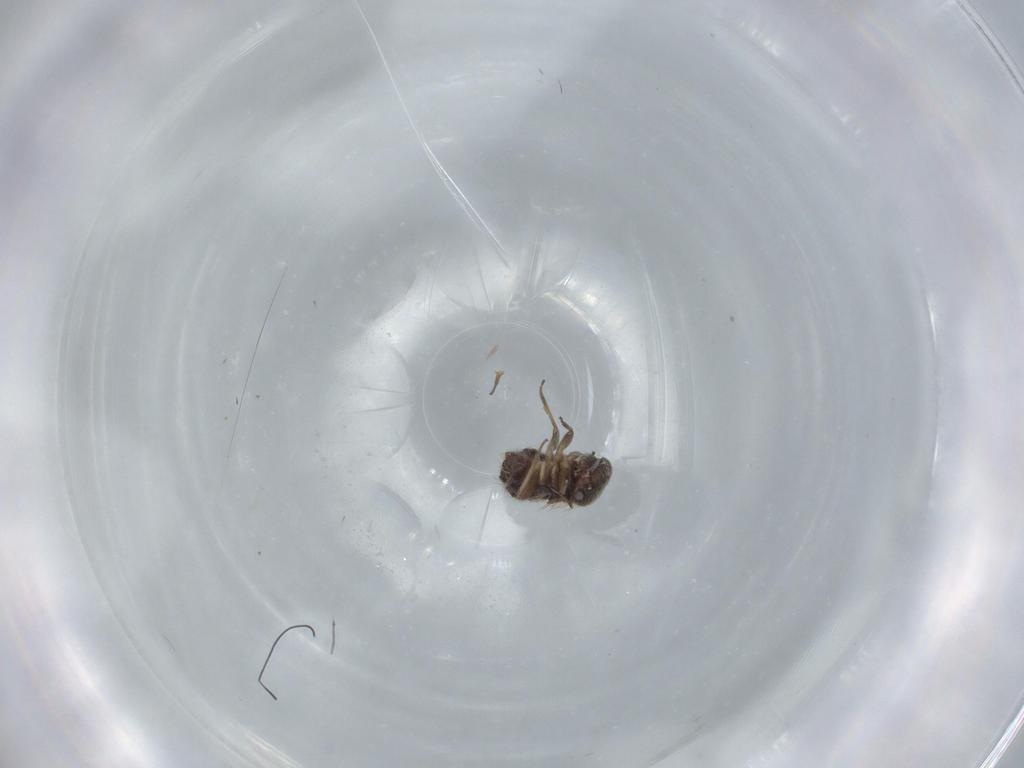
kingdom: Animalia
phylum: Arthropoda
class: Insecta
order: Psocodea
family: Archipsocidae
